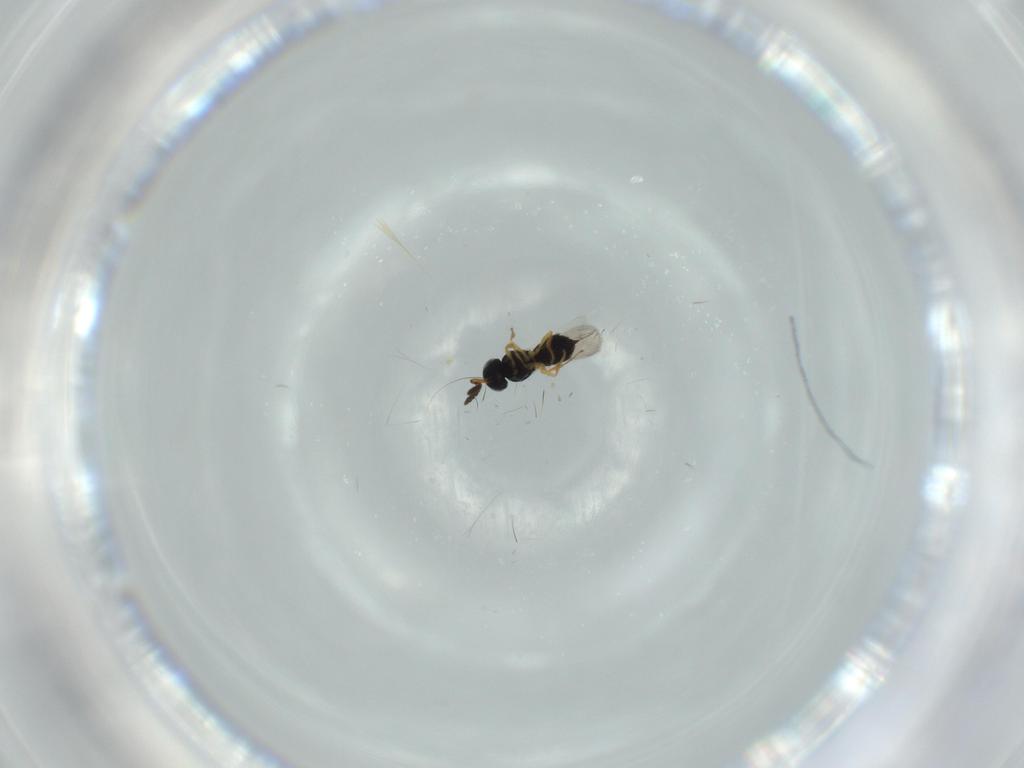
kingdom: Animalia
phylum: Arthropoda
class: Insecta
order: Hymenoptera
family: Scelionidae
